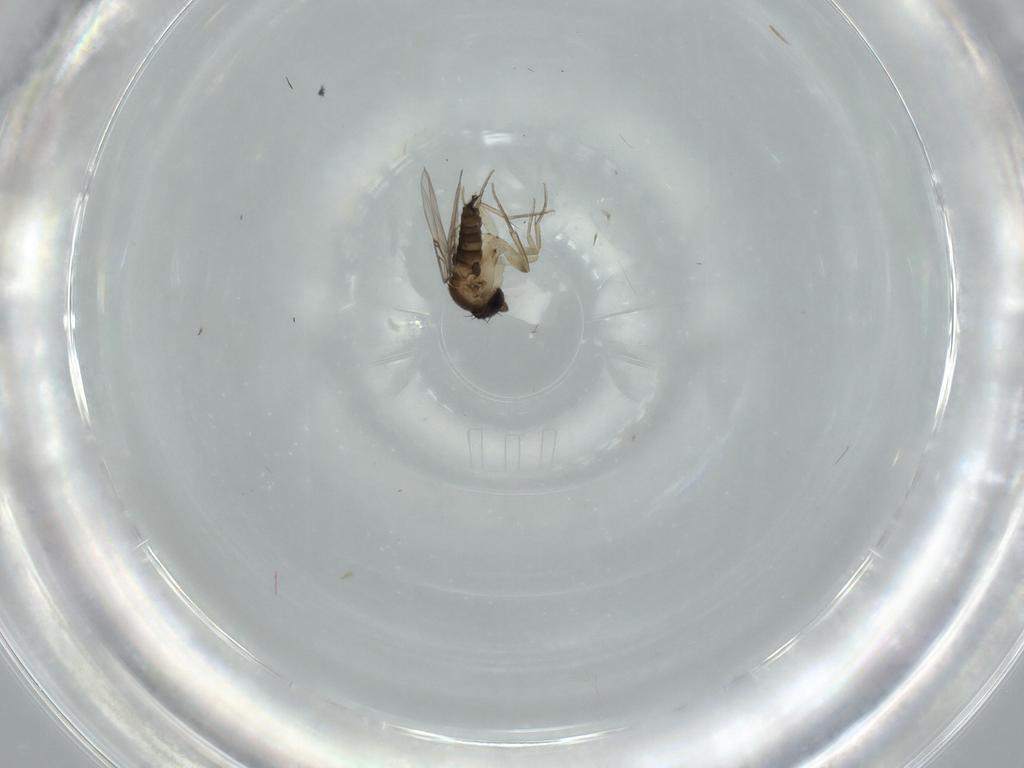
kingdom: Animalia
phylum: Arthropoda
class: Insecta
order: Diptera
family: Phoridae
